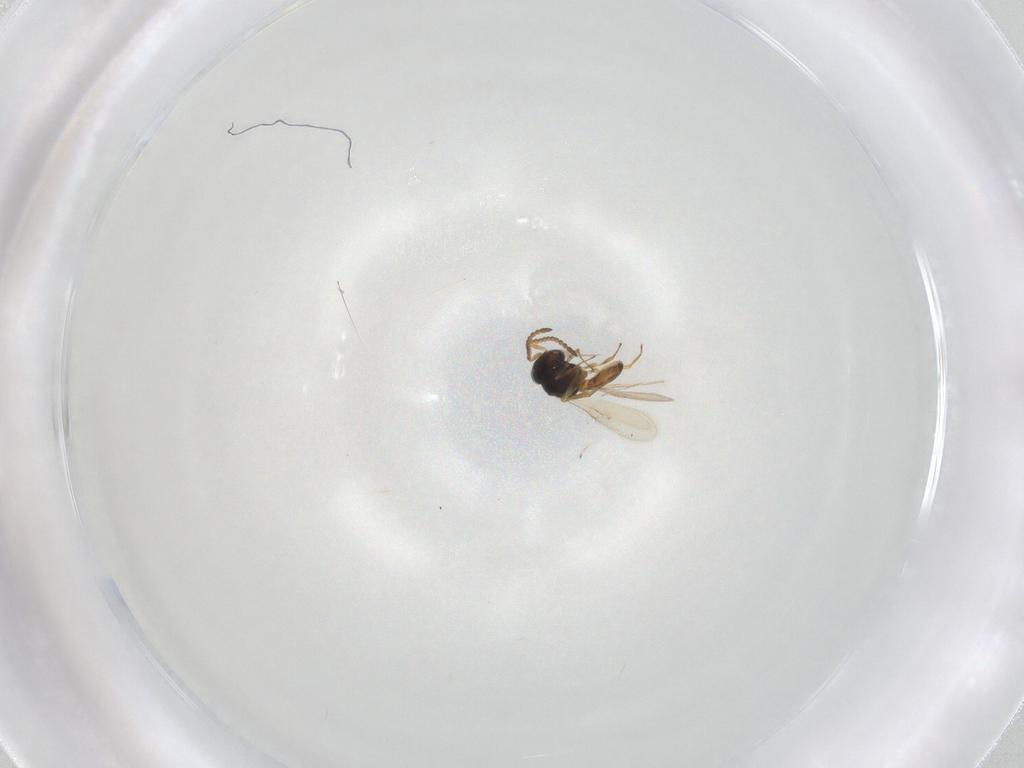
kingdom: Animalia
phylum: Arthropoda
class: Insecta
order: Hymenoptera
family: Scelionidae
